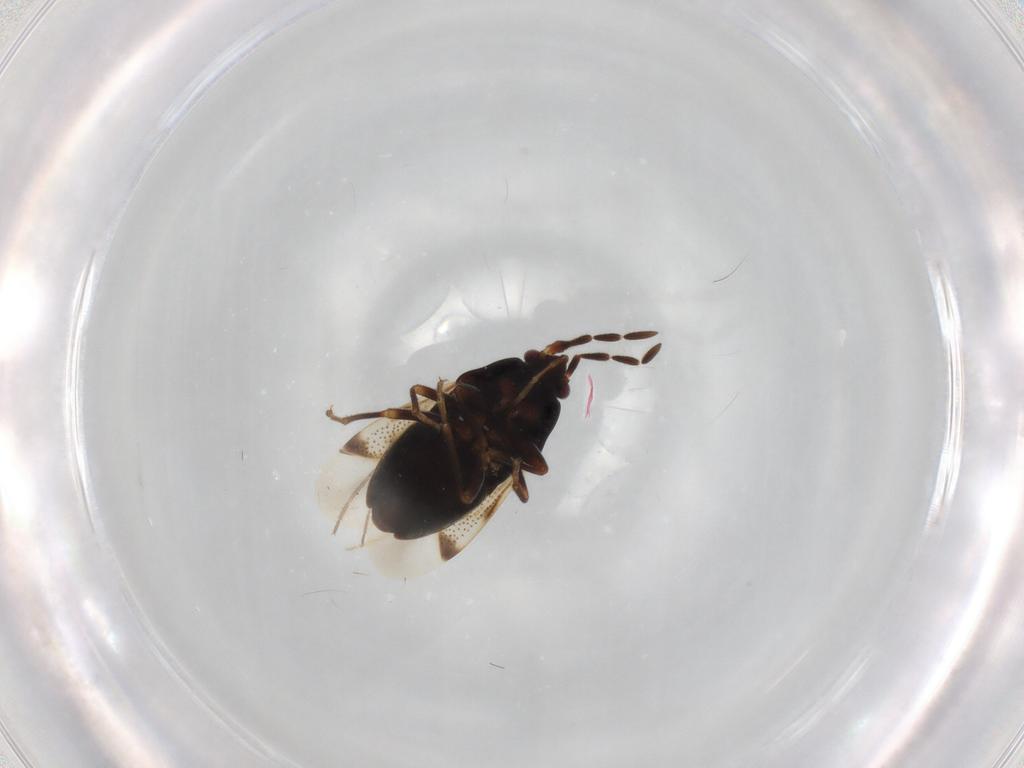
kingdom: Animalia
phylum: Arthropoda
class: Insecta
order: Hemiptera
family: Rhyparochromidae
